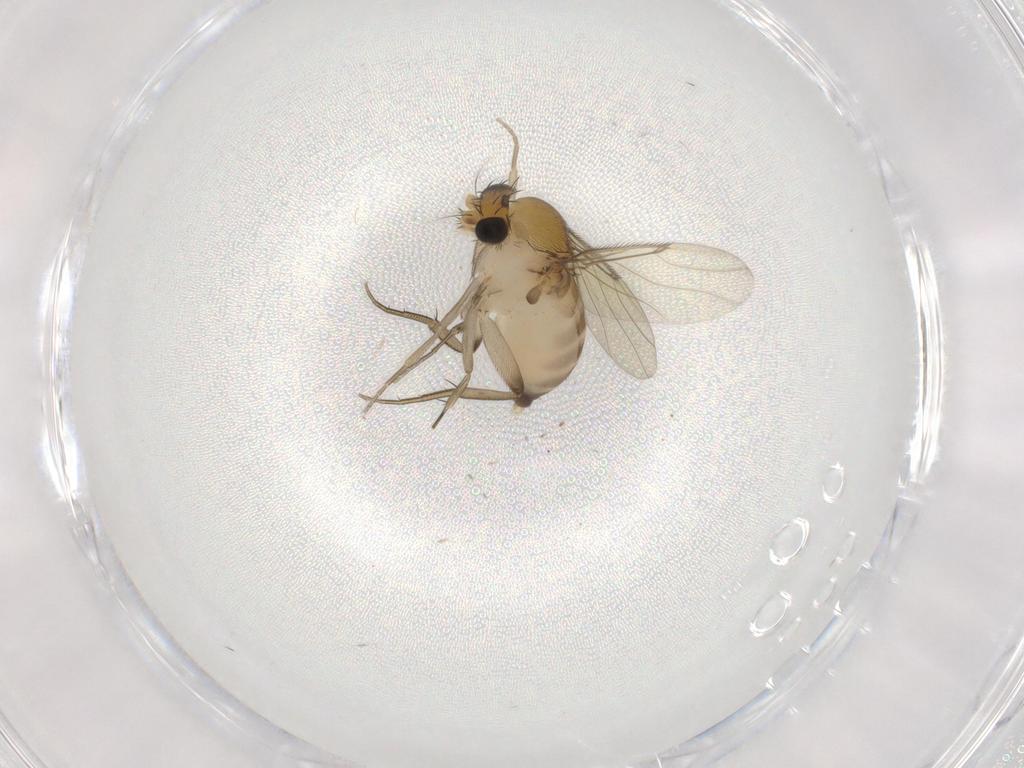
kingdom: Animalia
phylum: Arthropoda
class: Insecta
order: Diptera
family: Phoridae
